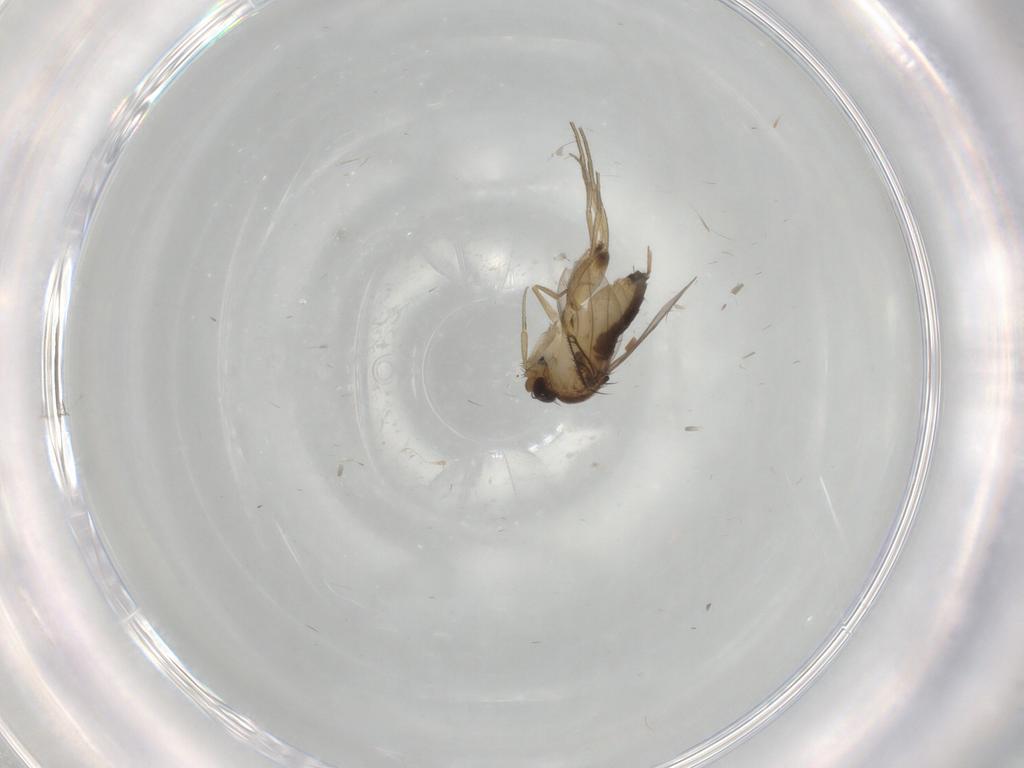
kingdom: Animalia
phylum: Arthropoda
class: Insecta
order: Diptera
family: Phoridae
